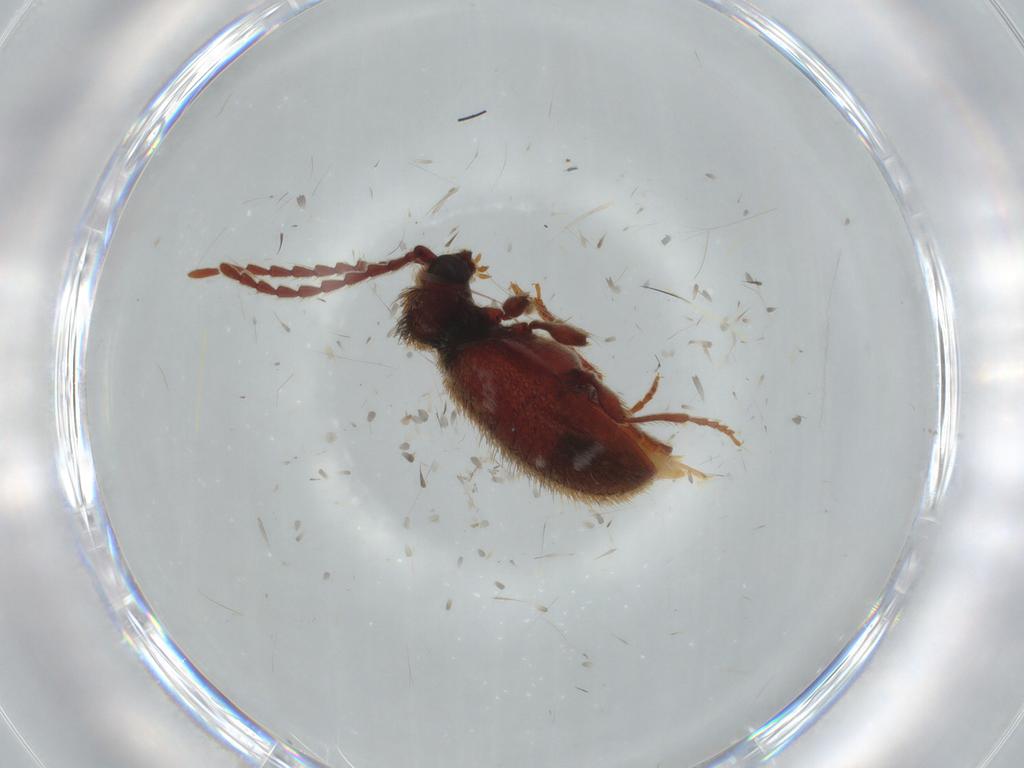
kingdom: Animalia
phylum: Arthropoda
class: Insecta
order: Coleoptera
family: Ptinidae
